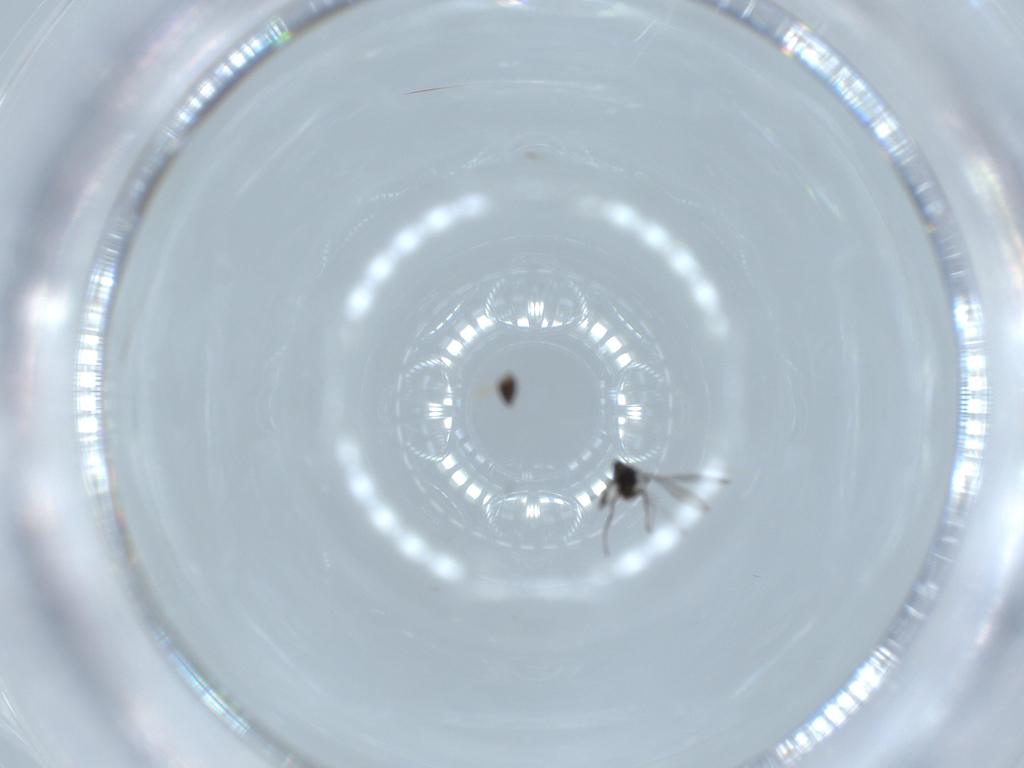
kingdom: Animalia
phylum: Arthropoda
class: Insecta
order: Hymenoptera
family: Mymaridae
